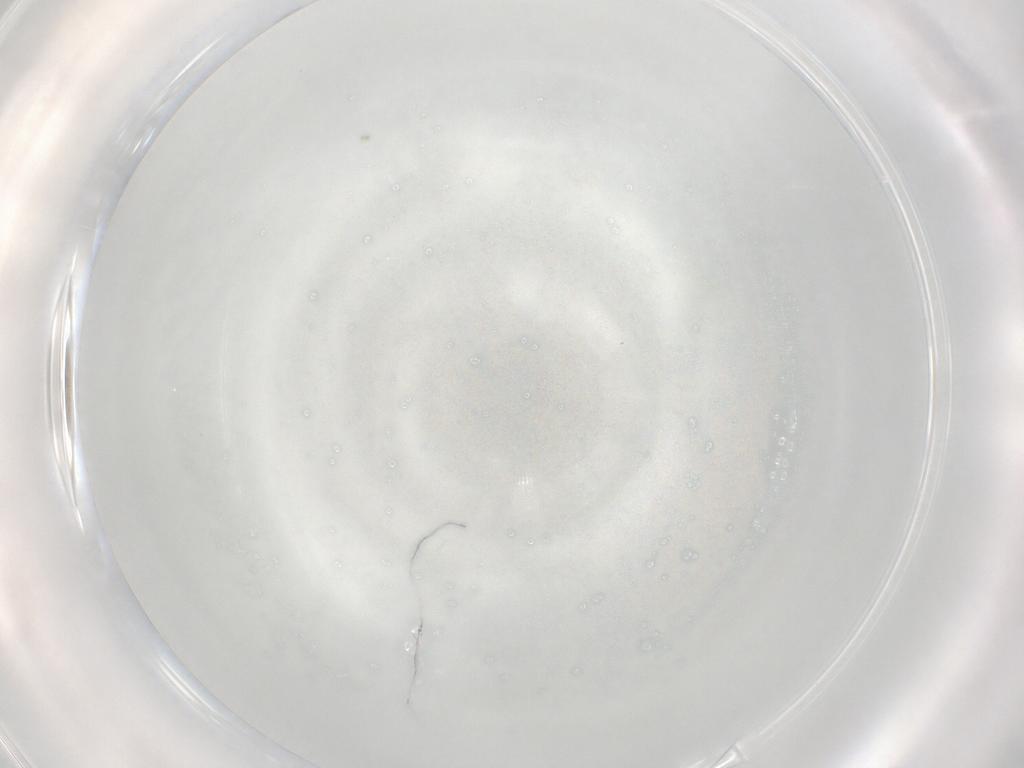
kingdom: Animalia
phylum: Arthropoda
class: Insecta
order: Diptera
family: Cecidomyiidae
